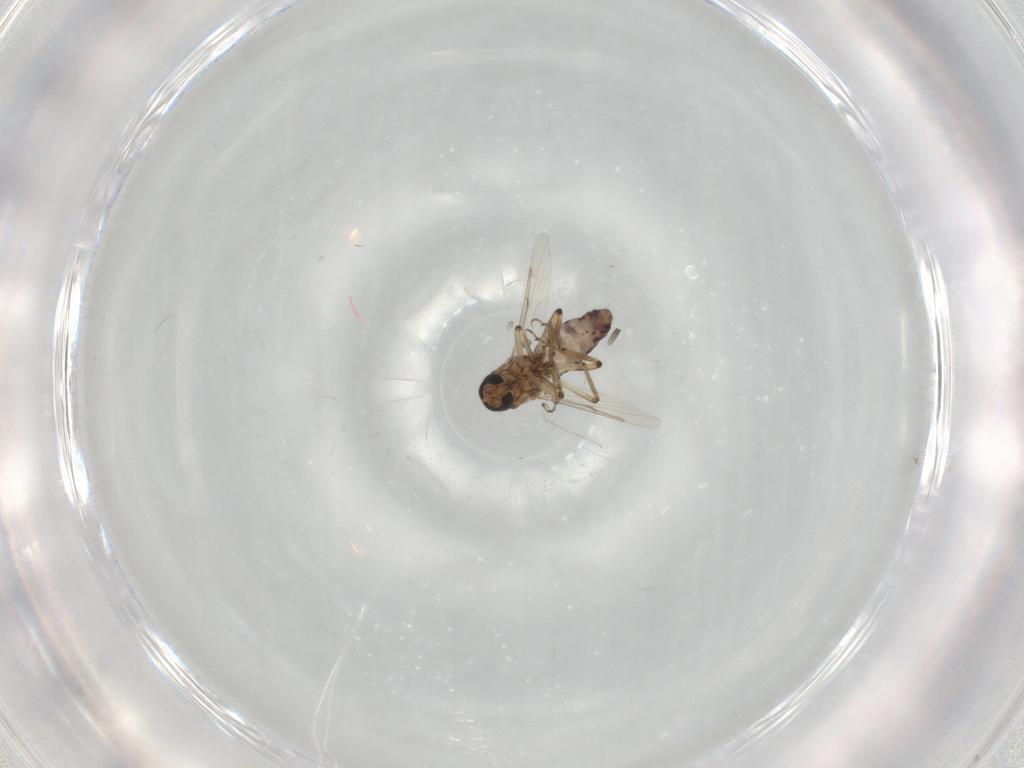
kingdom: Animalia
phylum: Arthropoda
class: Insecta
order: Diptera
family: Ceratopogonidae
